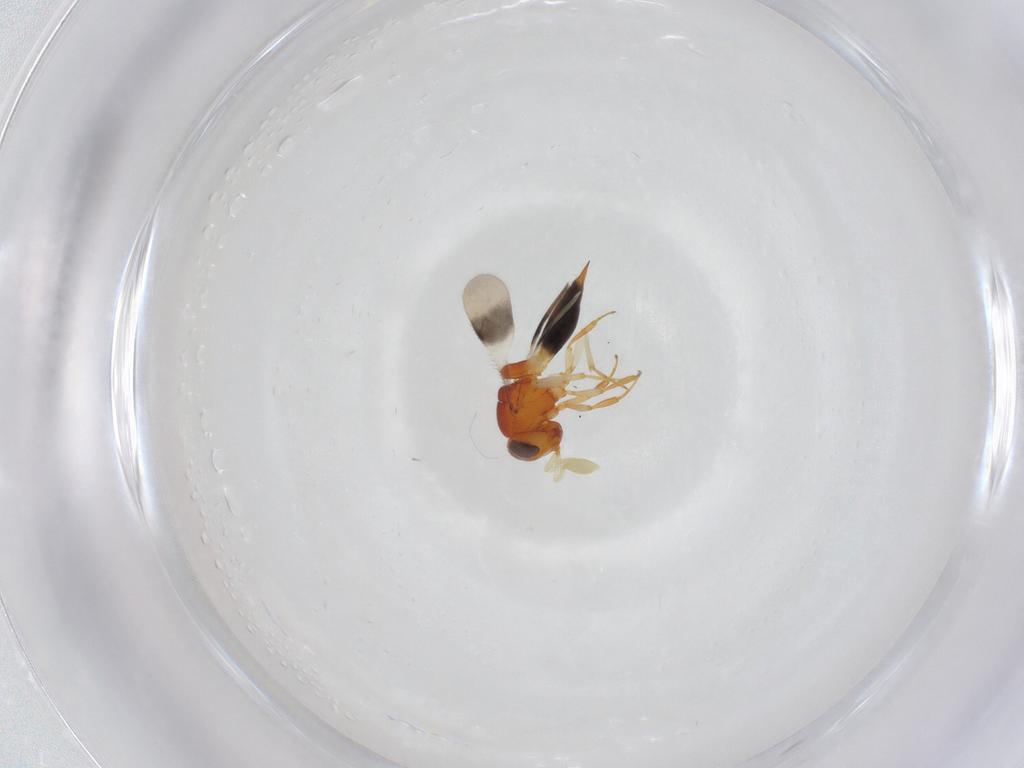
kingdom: Animalia
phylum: Arthropoda
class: Insecta
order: Hymenoptera
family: Scelionidae
